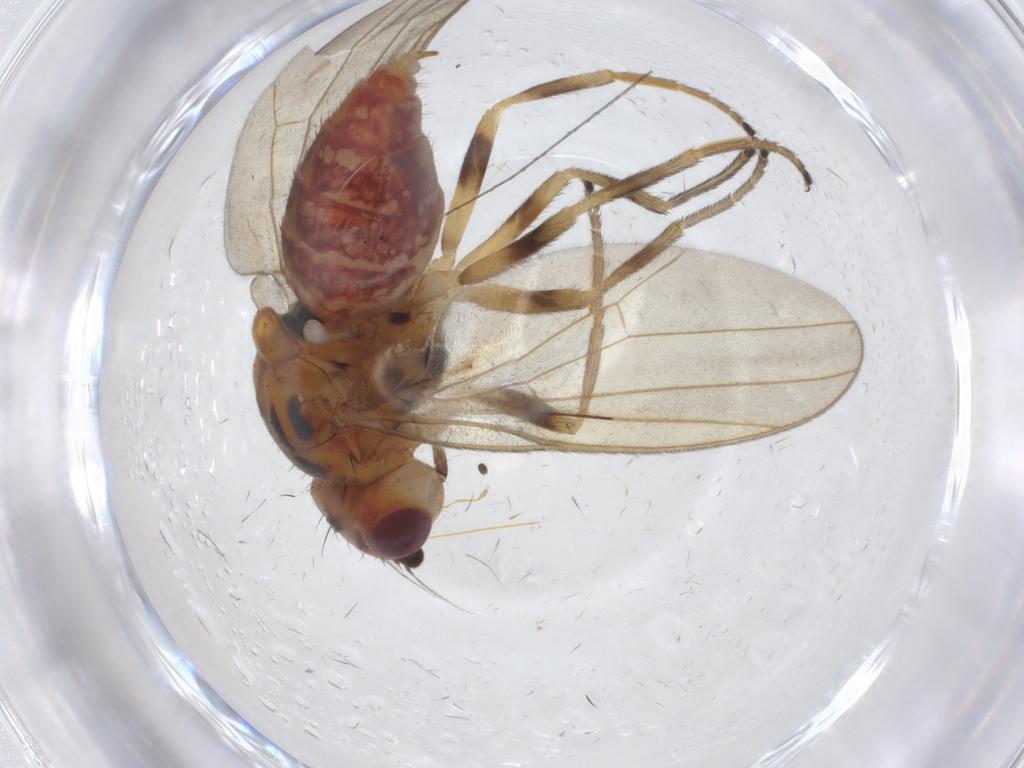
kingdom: Animalia
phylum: Arthropoda
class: Insecta
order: Diptera
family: Chloropidae
